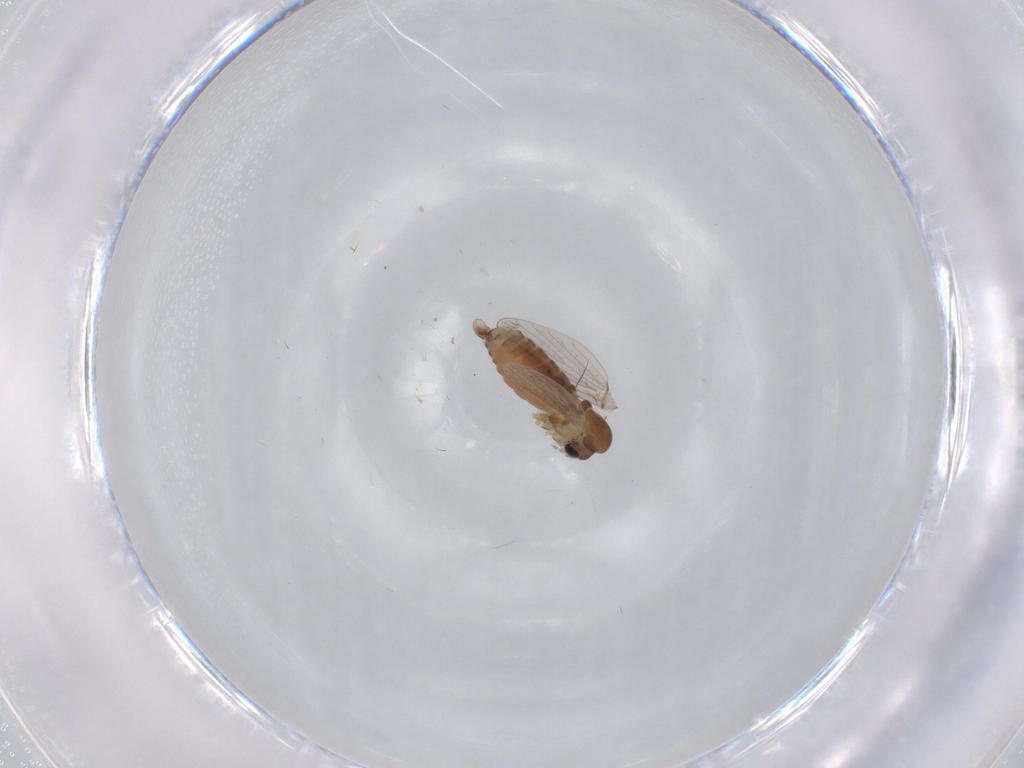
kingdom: Animalia
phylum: Arthropoda
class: Insecta
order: Diptera
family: Psychodidae
